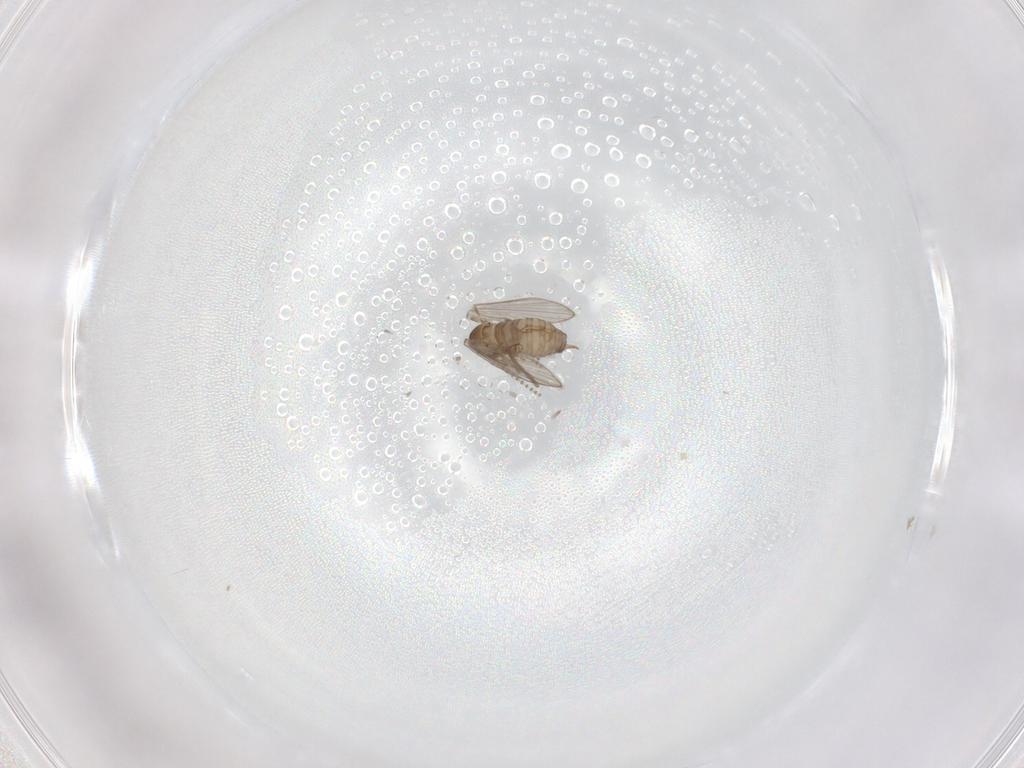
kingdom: Animalia
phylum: Arthropoda
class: Insecta
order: Diptera
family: Psychodidae
